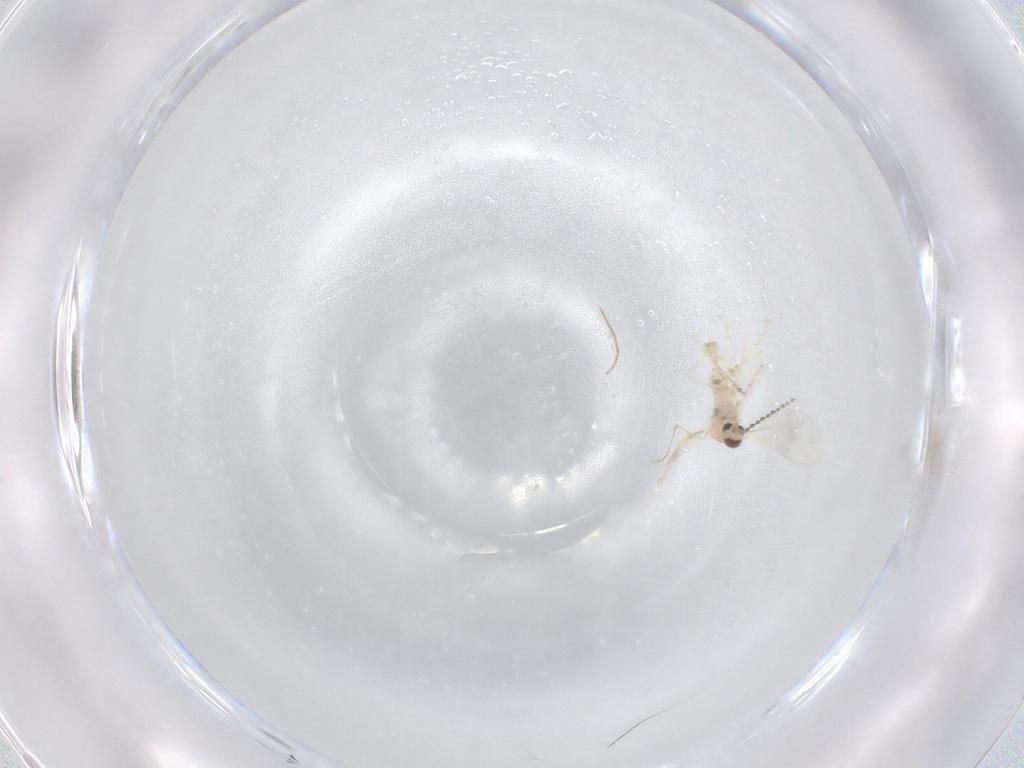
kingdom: Animalia
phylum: Arthropoda
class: Insecta
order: Diptera
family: Cecidomyiidae
